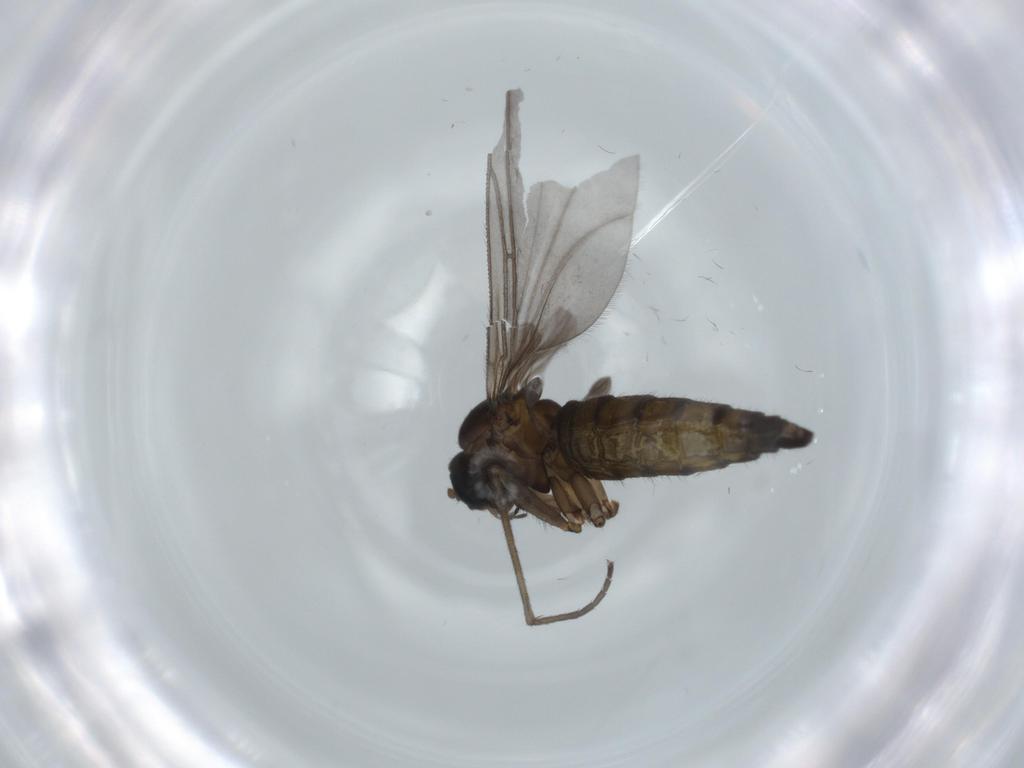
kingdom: Animalia
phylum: Arthropoda
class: Insecta
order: Diptera
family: Sciaridae
